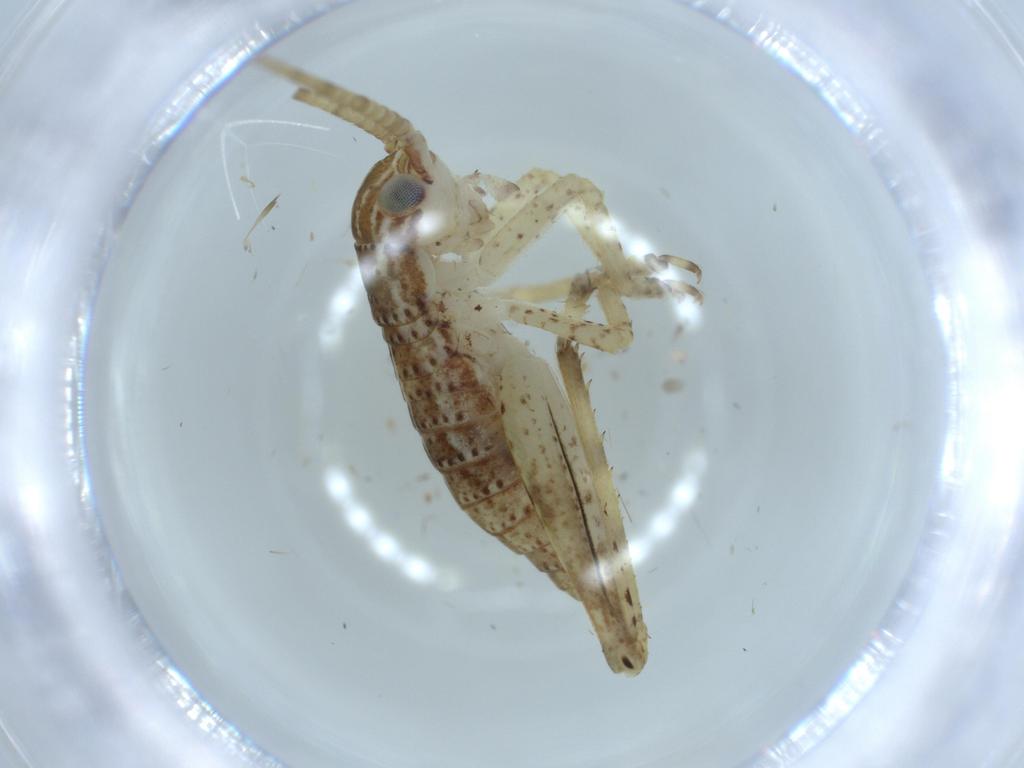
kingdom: Animalia
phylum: Arthropoda
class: Insecta
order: Orthoptera
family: Gryllidae
